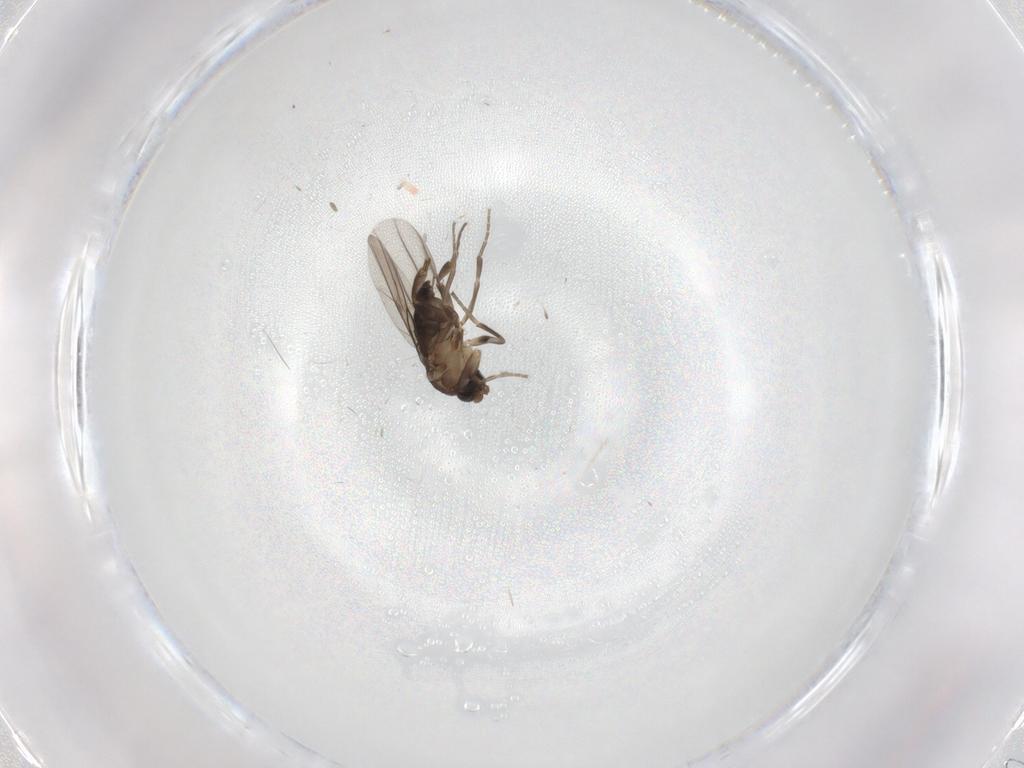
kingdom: Animalia
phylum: Arthropoda
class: Insecta
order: Diptera
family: Phoridae
